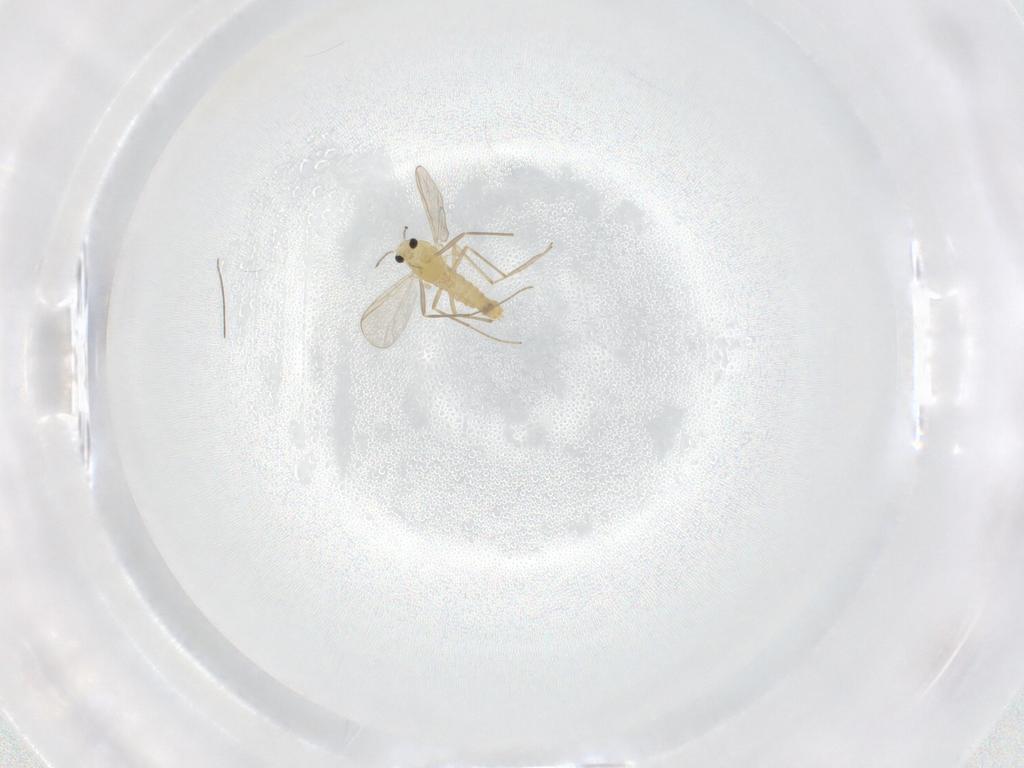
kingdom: Animalia
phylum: Arthropoda
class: Insecta
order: Diptera
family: Chironomidae
